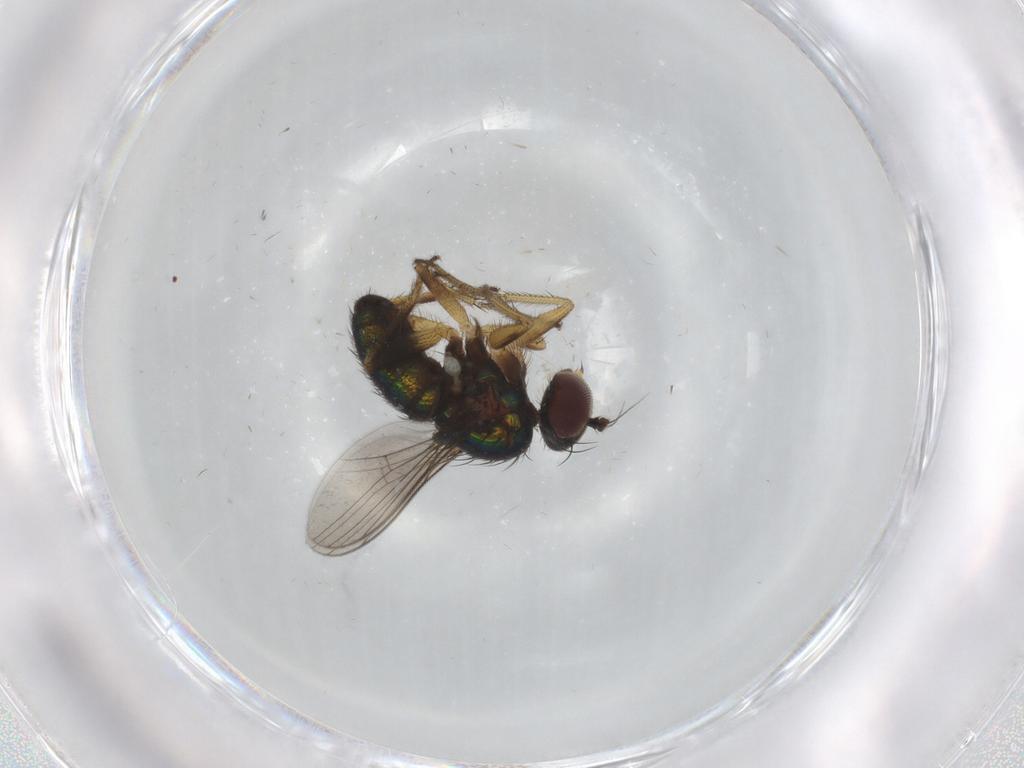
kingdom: Animalia
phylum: Arthropoda
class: Insecta
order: Diptera
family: Dolichopodidae
